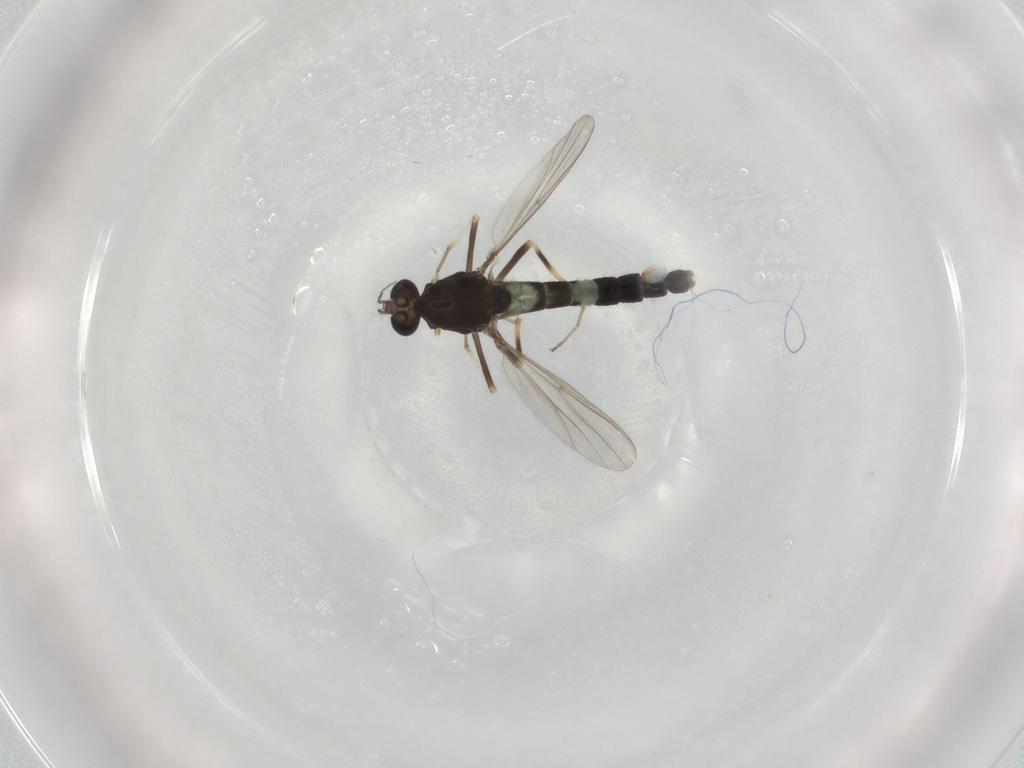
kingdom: Animalia
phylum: Arthropoda
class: Insecta
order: Diptera
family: Chironomidae
